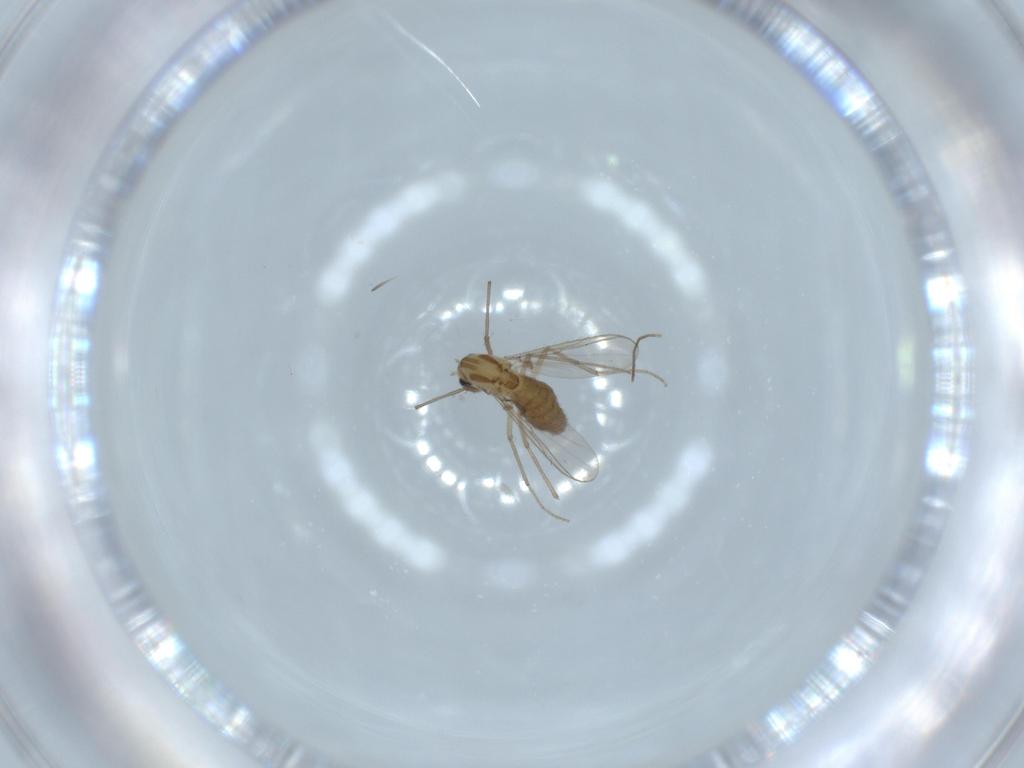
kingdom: Animalia
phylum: Arthropoda
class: Insecta
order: Diptera
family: Chironomidae
